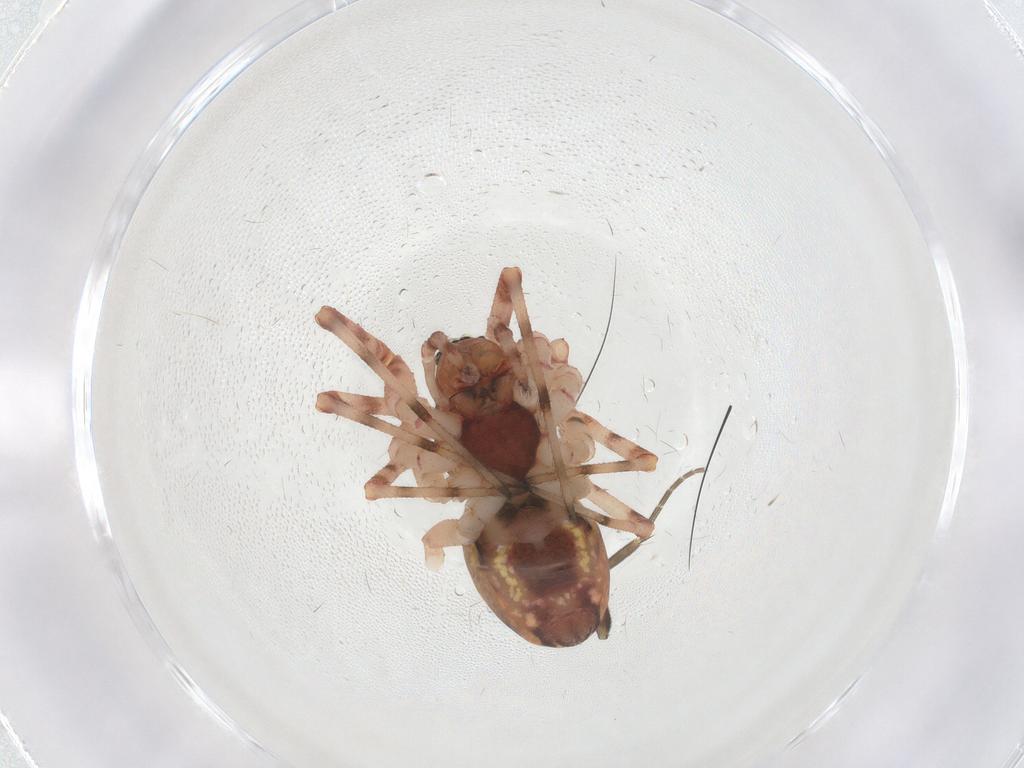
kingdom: Animalia
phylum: Arthropoda
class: Arachnida
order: Araneae
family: Linyphiidae
